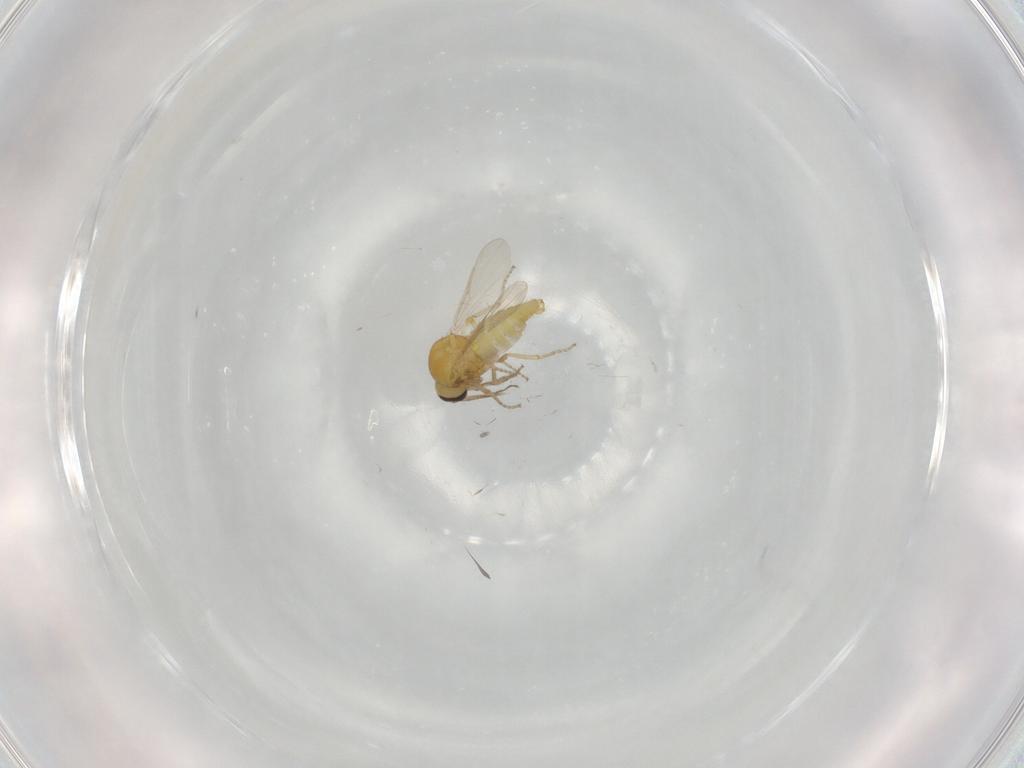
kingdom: Animalia
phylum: Arthropoda
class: Insecta
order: Diptera
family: Ceratopogonidae
